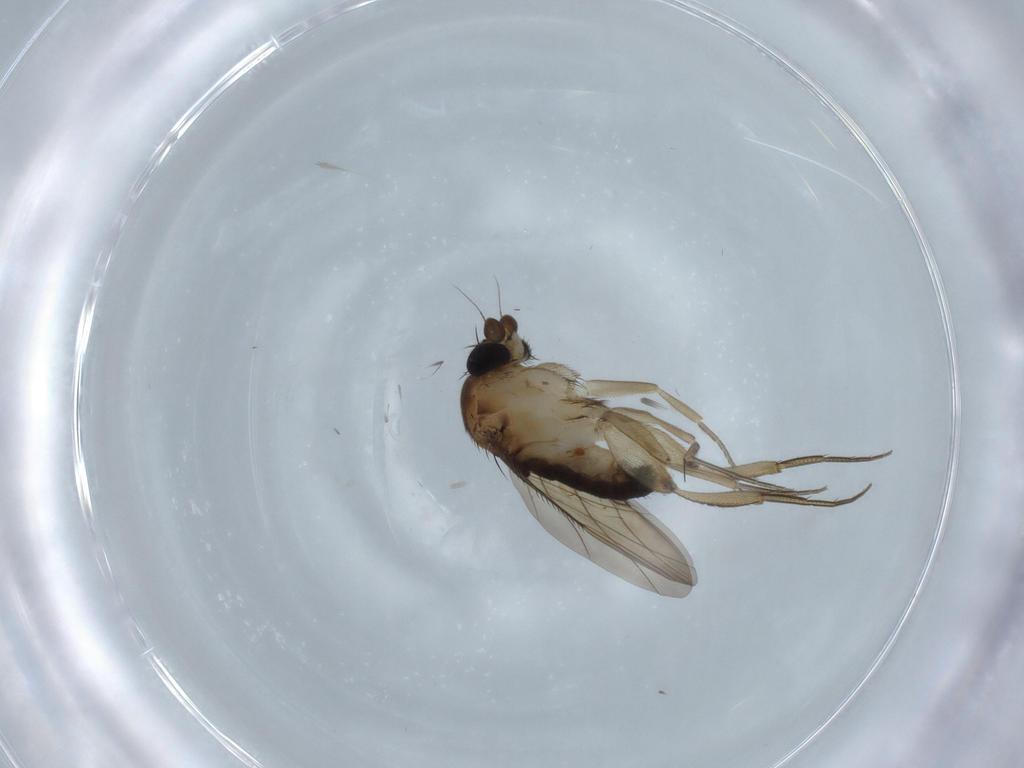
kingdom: Animalia
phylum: Arthropoda
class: Insecta
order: Diptera
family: Phoridae
